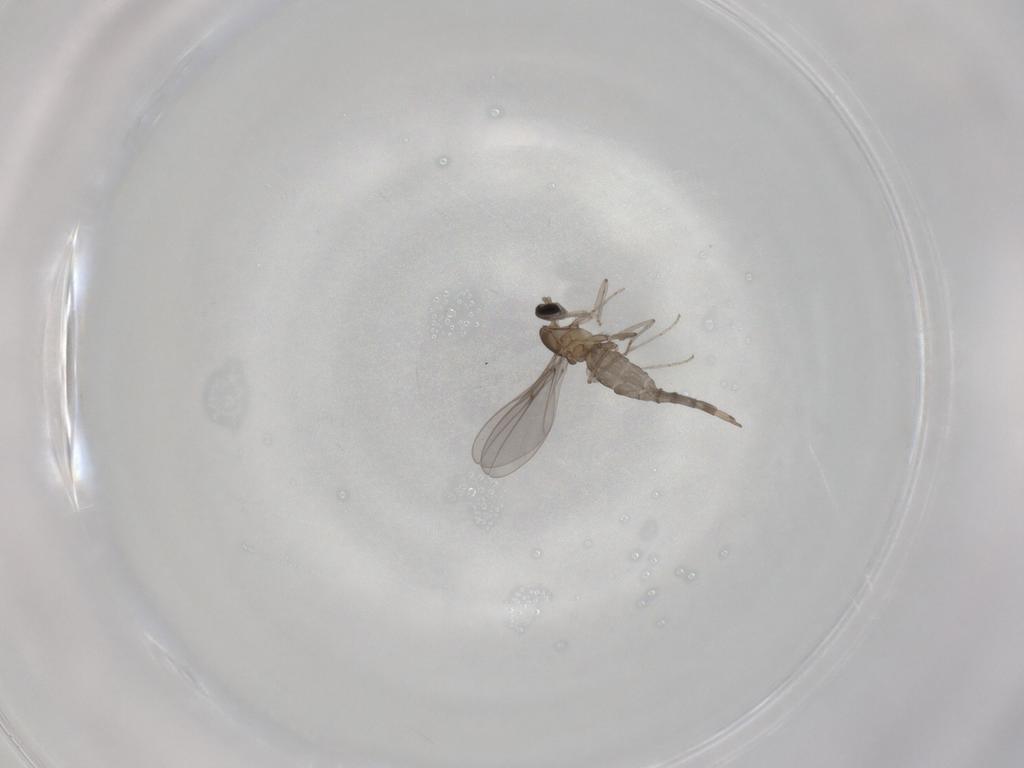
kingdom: Animalia
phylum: Arthropoda
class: Insecta
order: Diptera
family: Cecidomyiidae
